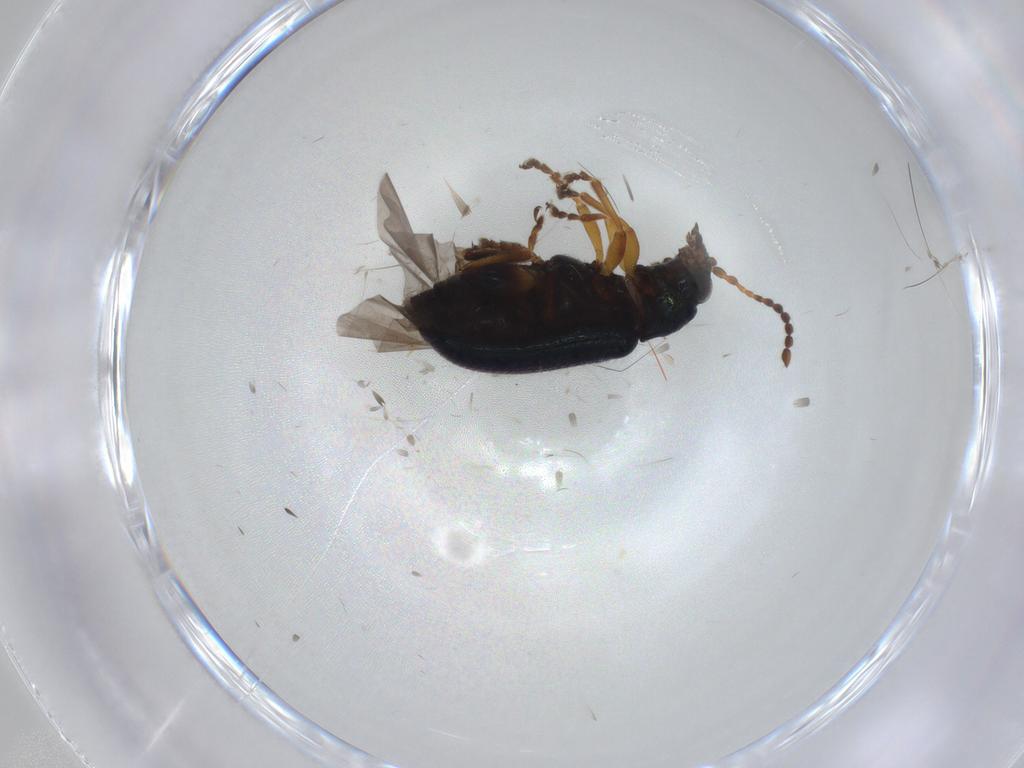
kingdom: Animalia
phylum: Arthropoda
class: Insecta
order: Coleoptera
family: Chrysomelidae
